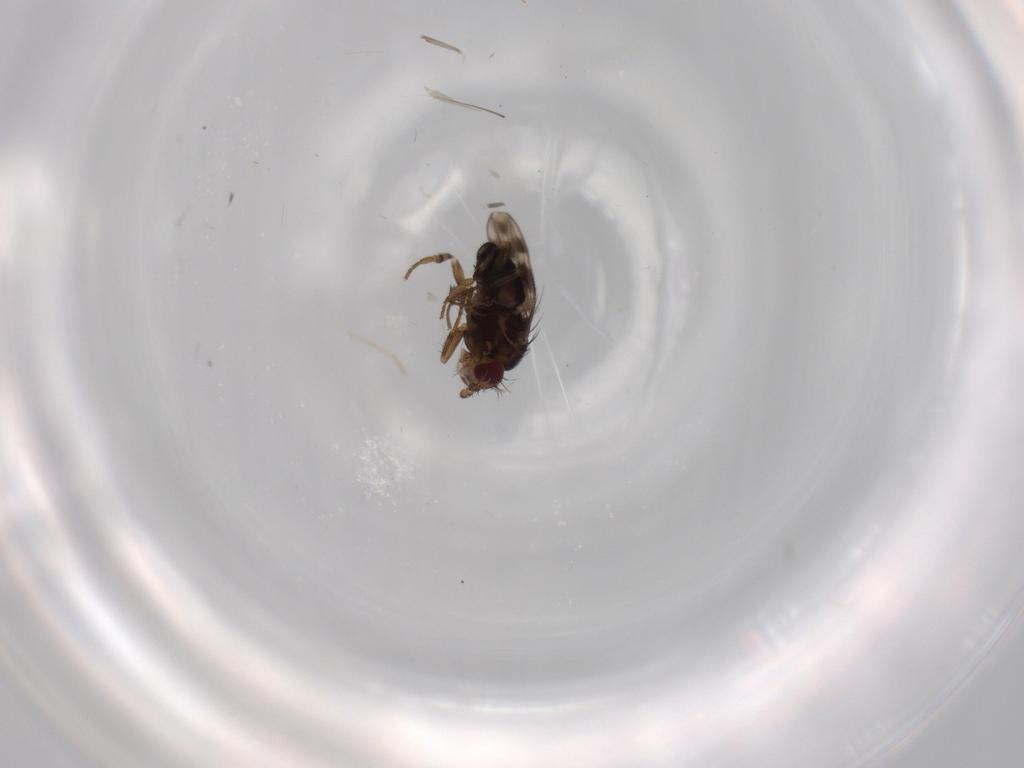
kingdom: Animalia
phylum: Arthropoda
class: Insecta
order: Diptera
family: Sphaeroceridae
